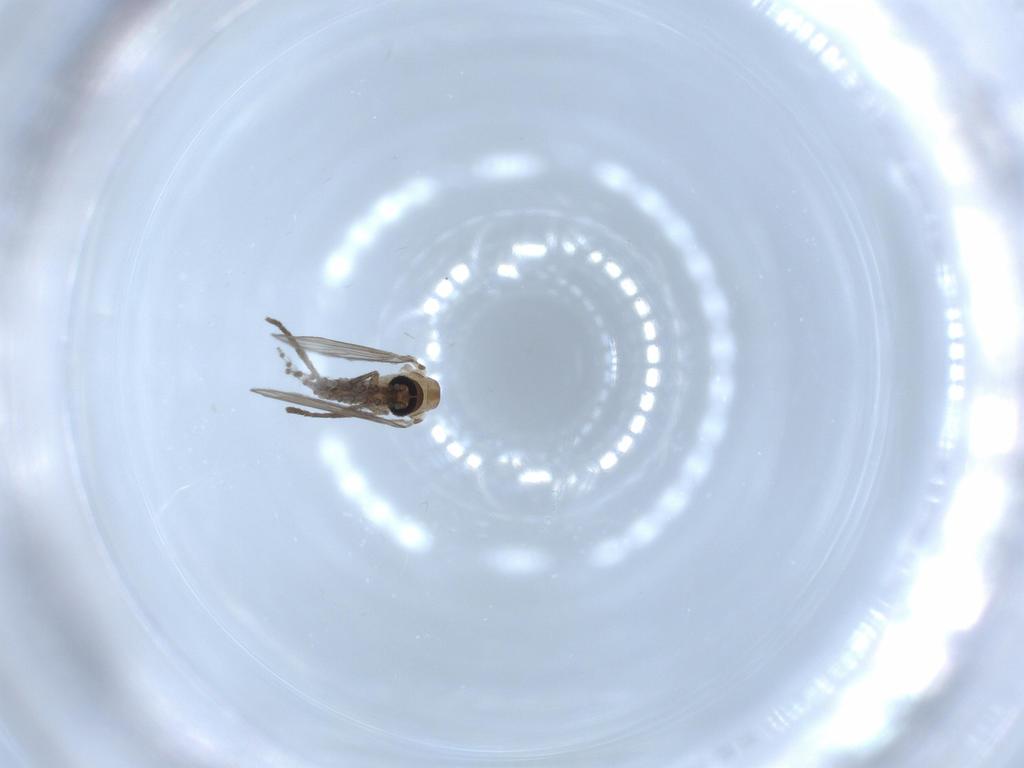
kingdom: Animalia
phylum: Arthropoda
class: Insecta
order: Diptera
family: Psychodidae
